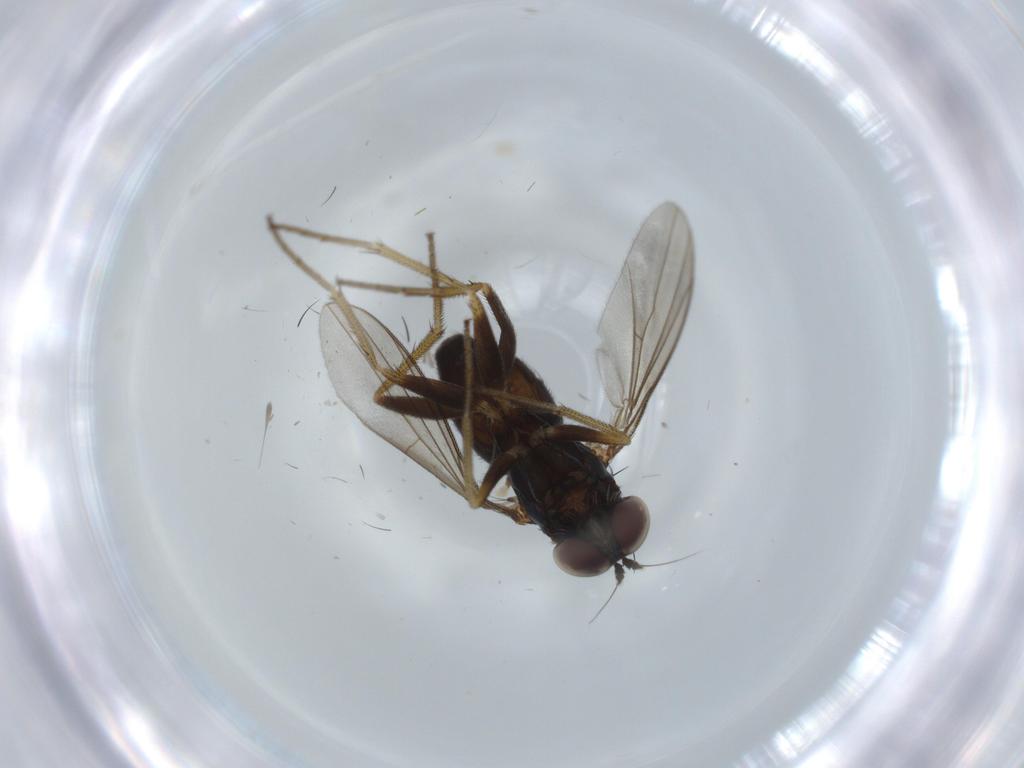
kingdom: Animalia
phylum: Arthropoda
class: Insecta
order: Diptera
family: Dolichopodidae
